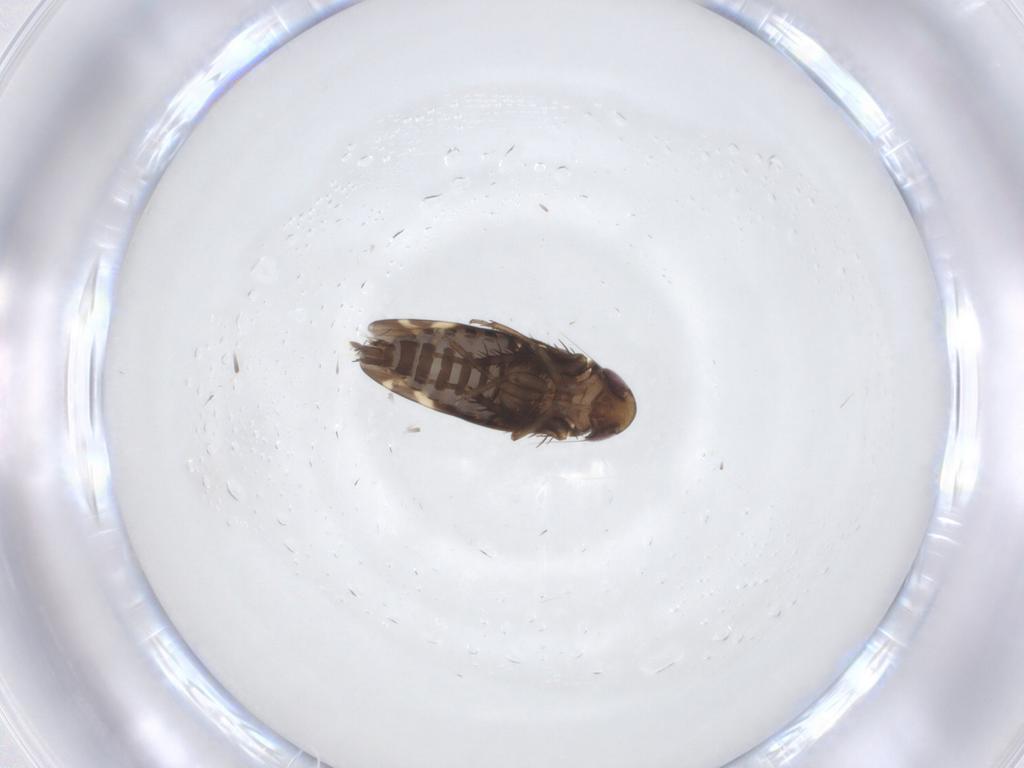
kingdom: Animalia
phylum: Arthropoda
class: Insecta
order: Hemiptera
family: Cicadellidae
